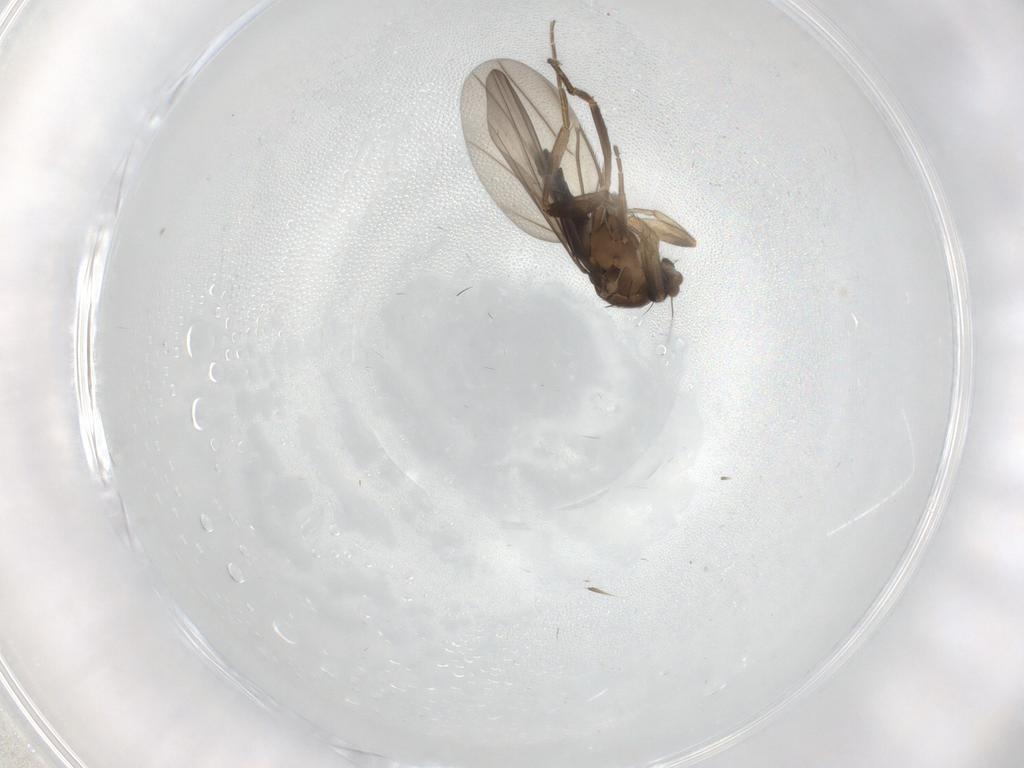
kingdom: Animalia
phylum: Arthropoda
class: Insecta
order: Diptera
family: Phoridae
